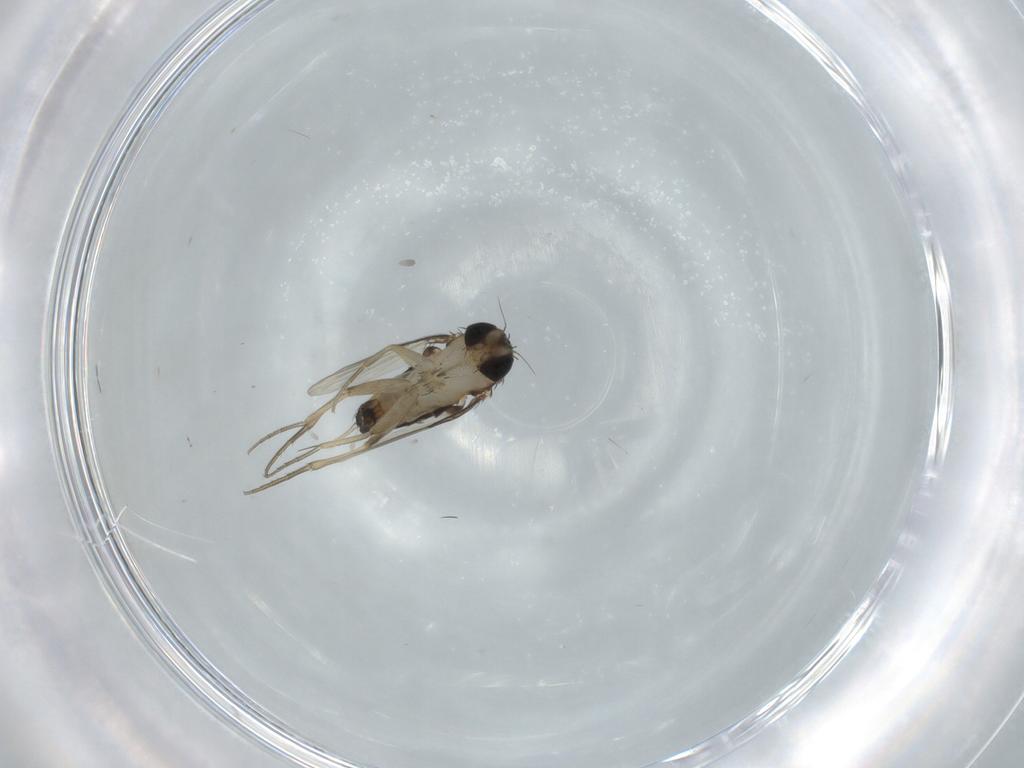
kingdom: Animalia
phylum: Arthropoda
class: Insecta
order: Diptera
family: Phoridae
